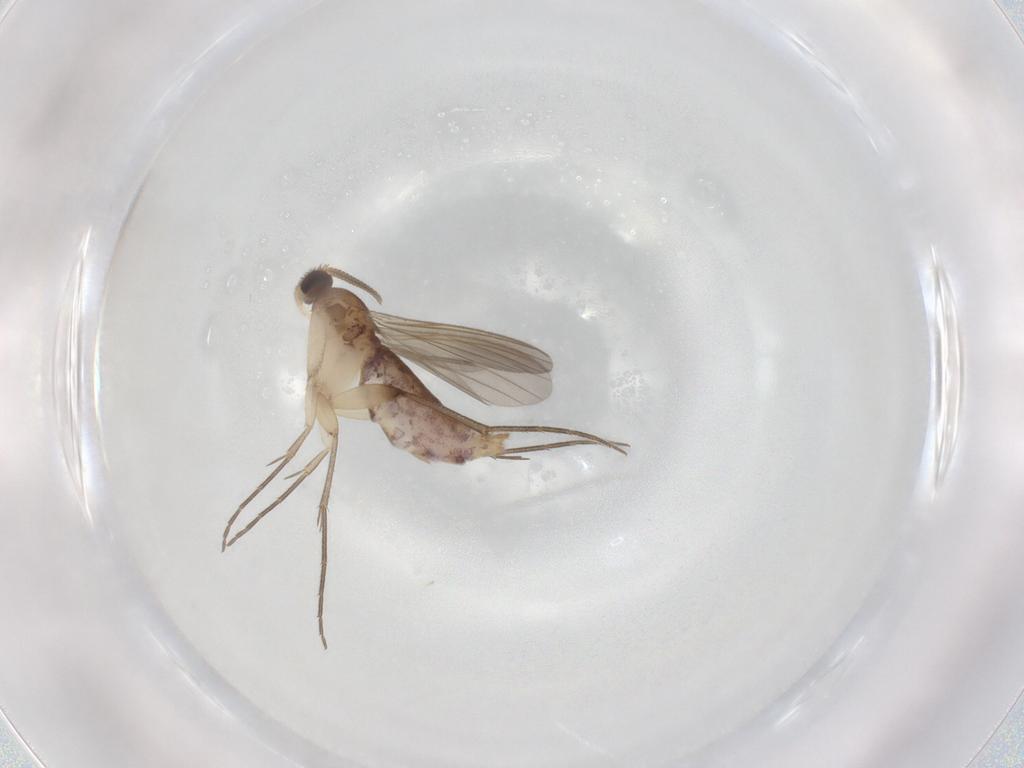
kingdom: Animalia
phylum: Arthropoda
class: Insecta
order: Diptera
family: Mycetophilidae
